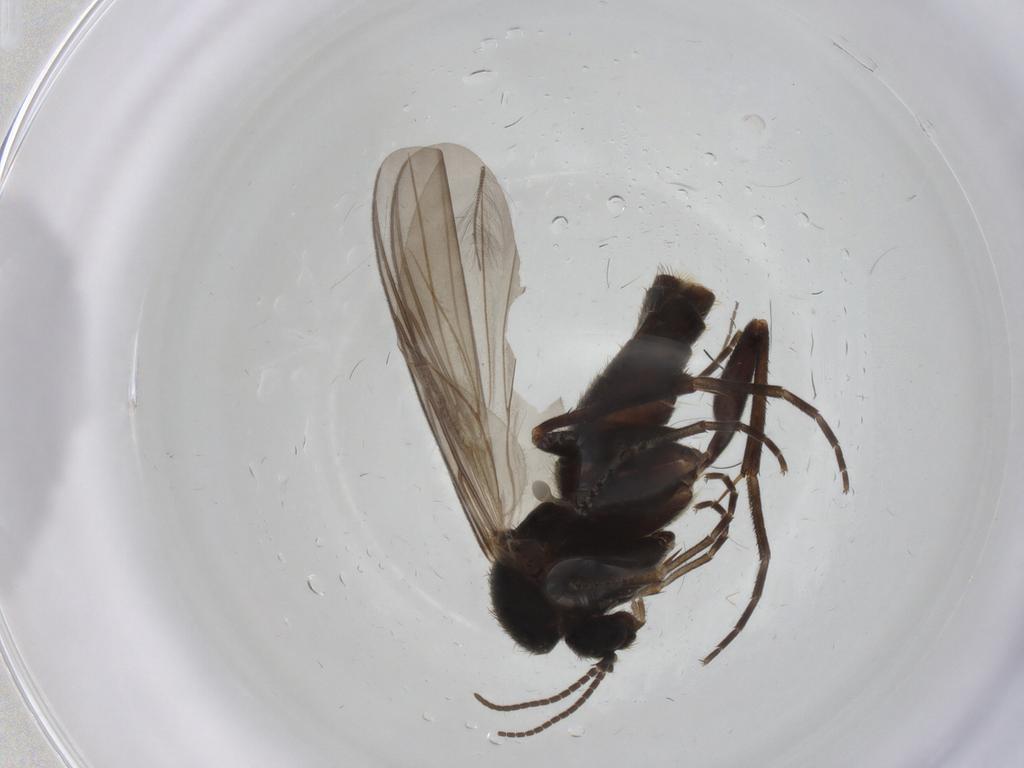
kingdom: Animalia
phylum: Arthropoda
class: Insecta
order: Diptera
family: Mycetophilidae
